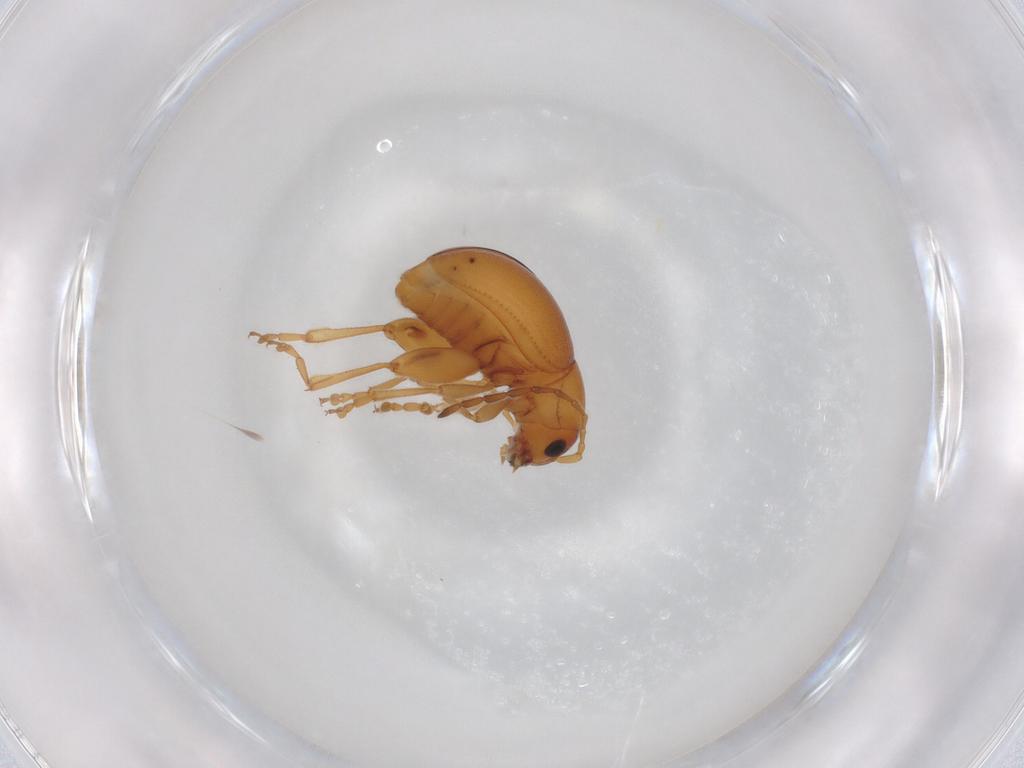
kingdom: Animalia
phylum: Arthropoda
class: Insecta
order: Coleoptera
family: Chrysomelidae
